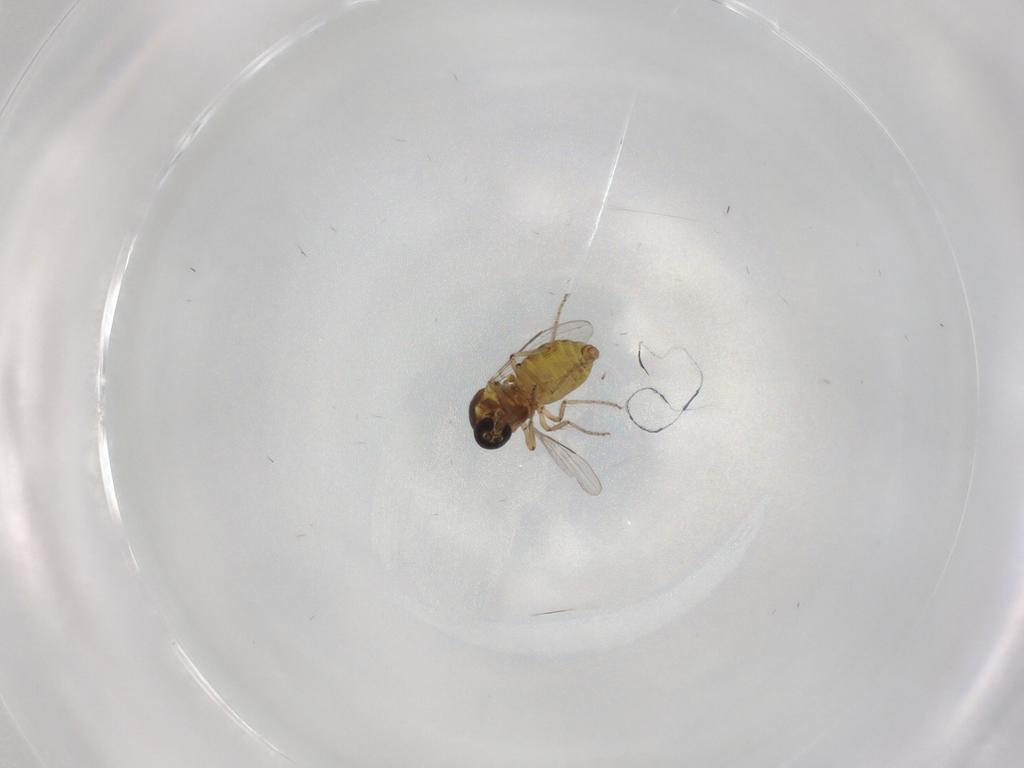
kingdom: Animalia
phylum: Arthropoda
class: Insecta
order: Diptera
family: Ceratopogonidae
